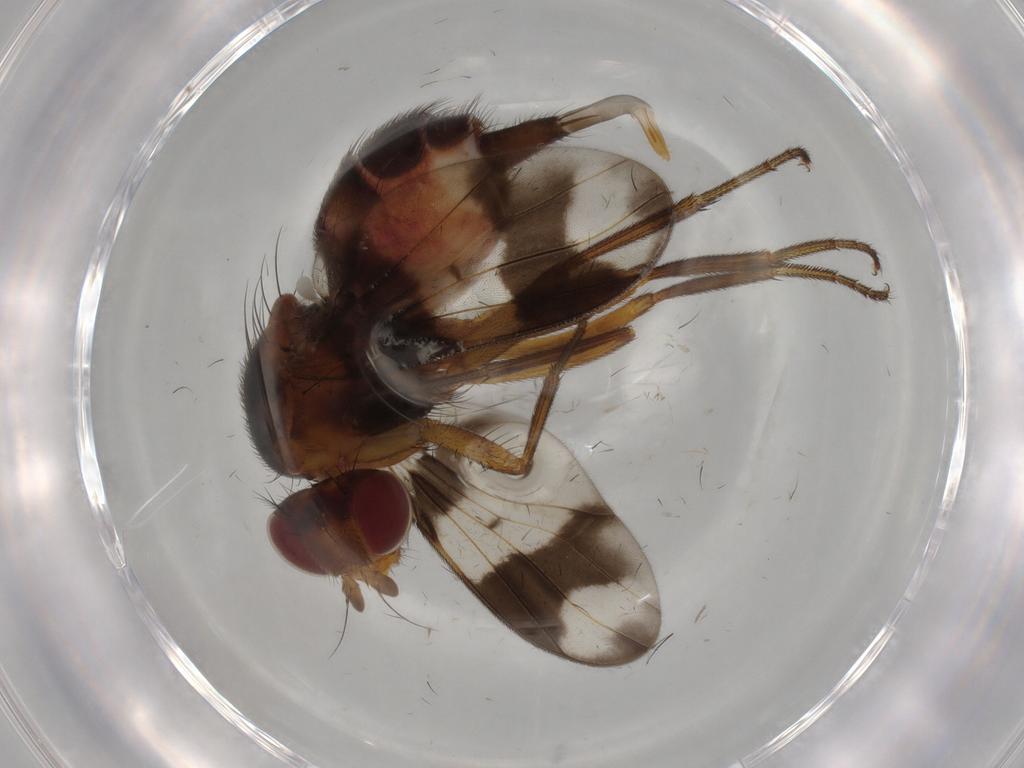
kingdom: Animalia
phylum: Arthropoda
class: Insecta
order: Diptera
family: Richardiidae
